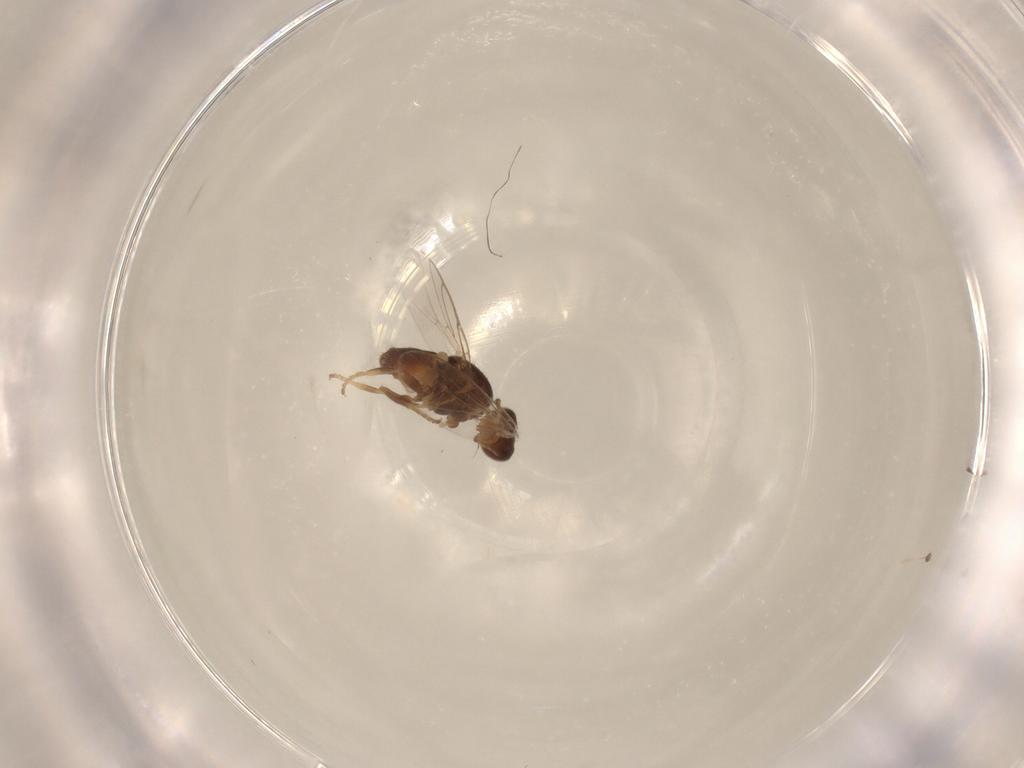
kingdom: Animalia
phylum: Arthropoda
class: Insecta
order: Diptera
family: Chloropidae
